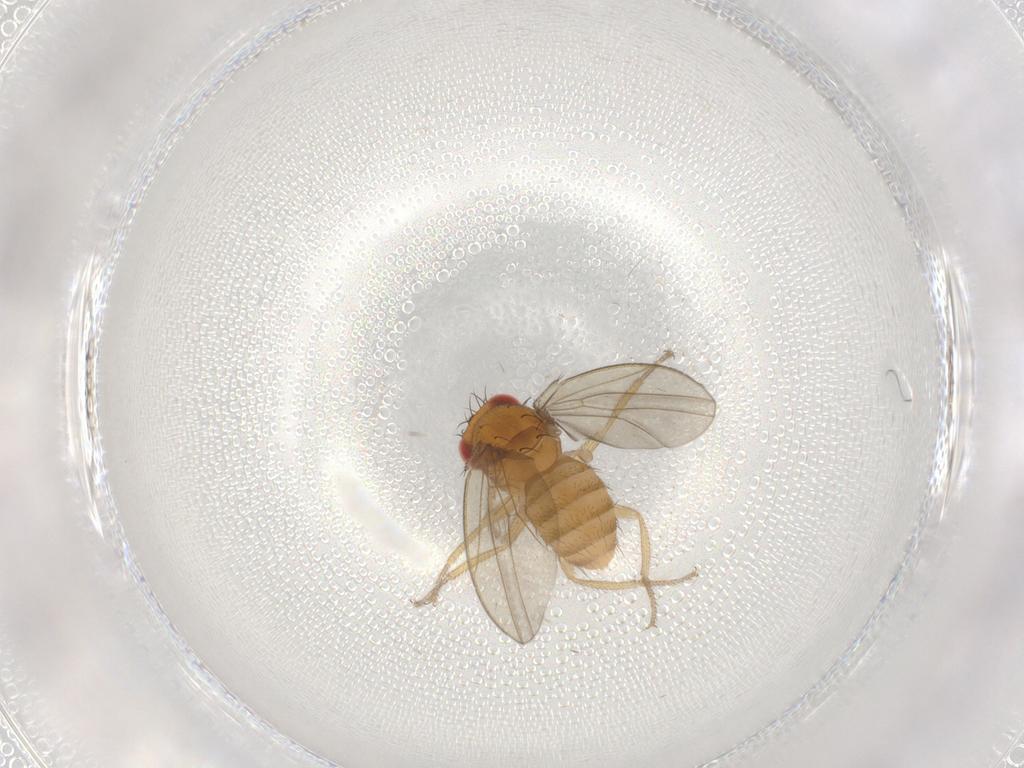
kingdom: Animalia
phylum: Arthropoda
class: Insecta
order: Diptera
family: Drosophilidae
